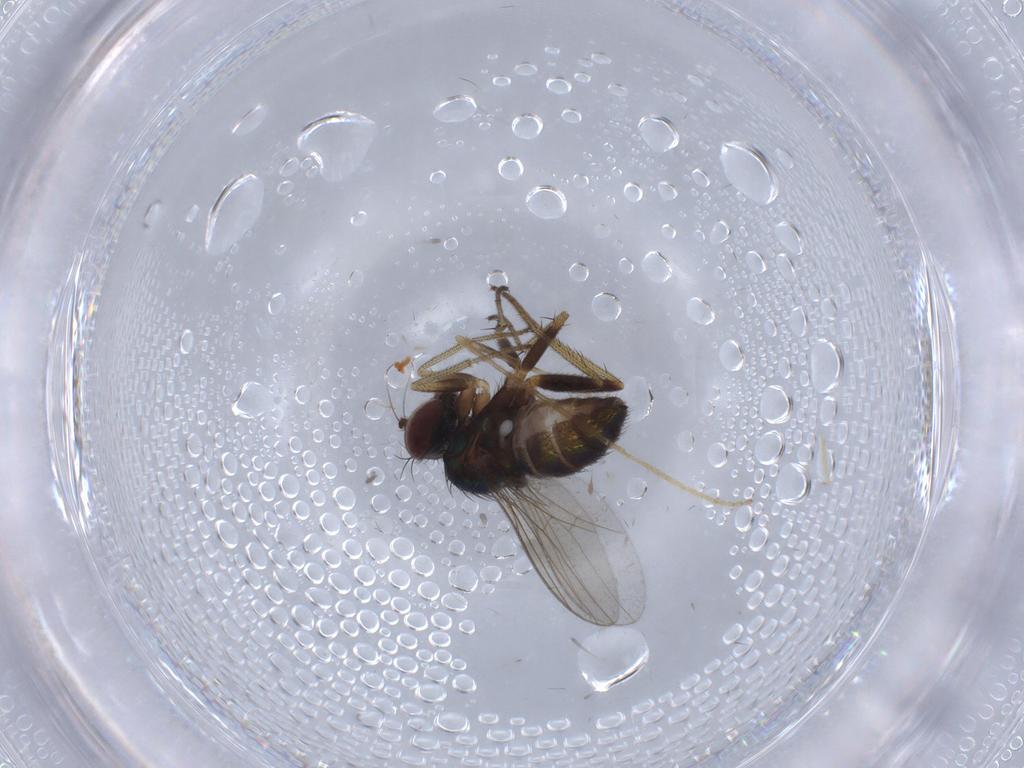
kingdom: Animalia
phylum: Arthropoda
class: Insecta
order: Diptera
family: Limoniidae
